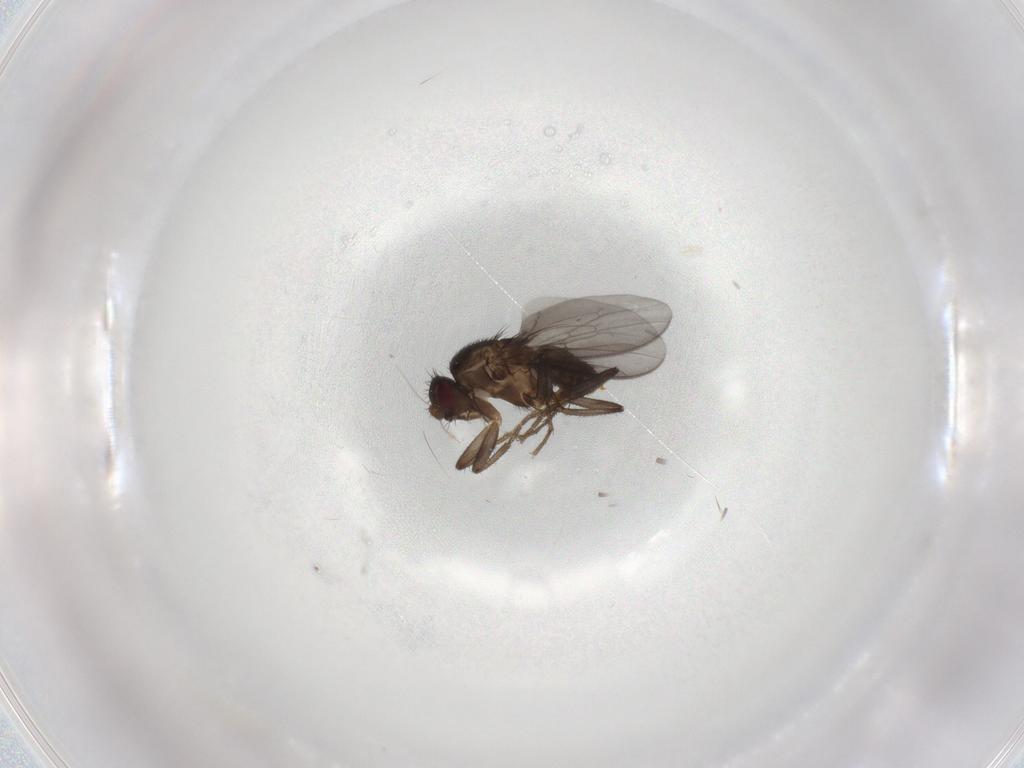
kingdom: Animalia
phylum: Arthropoda
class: Insecta
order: Diptera
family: Sphaeroceridae
